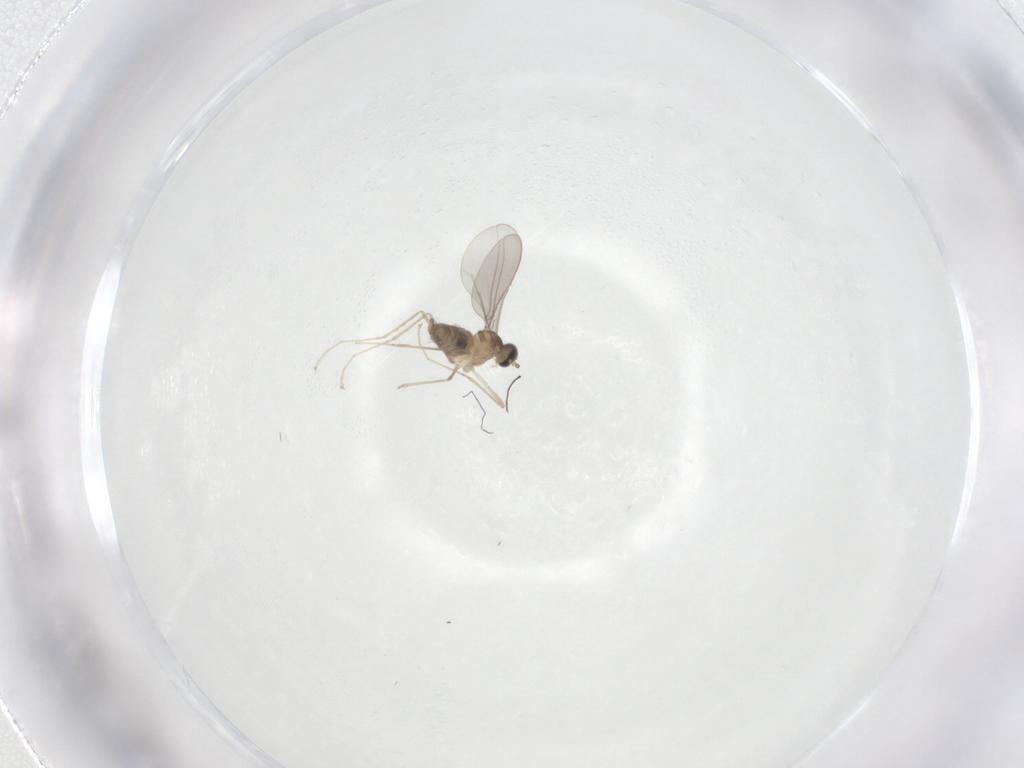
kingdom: Animalia
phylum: Arthropoda
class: Insecta
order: Diptera
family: Cecidomyiidae
